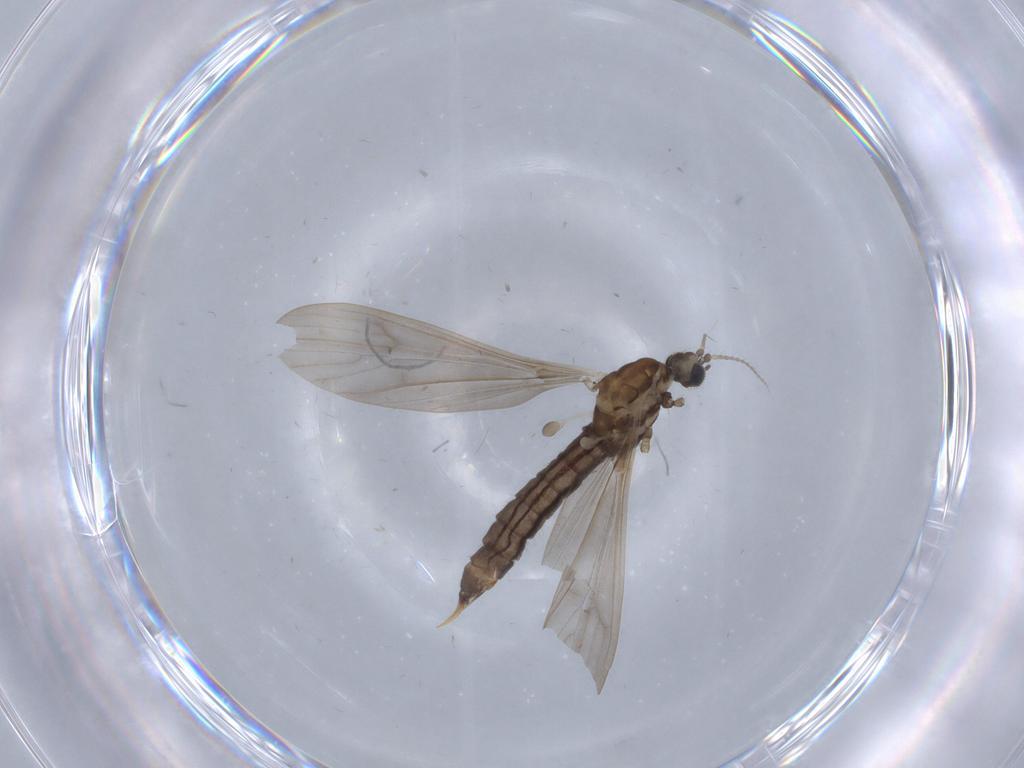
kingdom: Animalia
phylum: Arthropoda
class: Insecta
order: Diptera
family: Limoniidae
